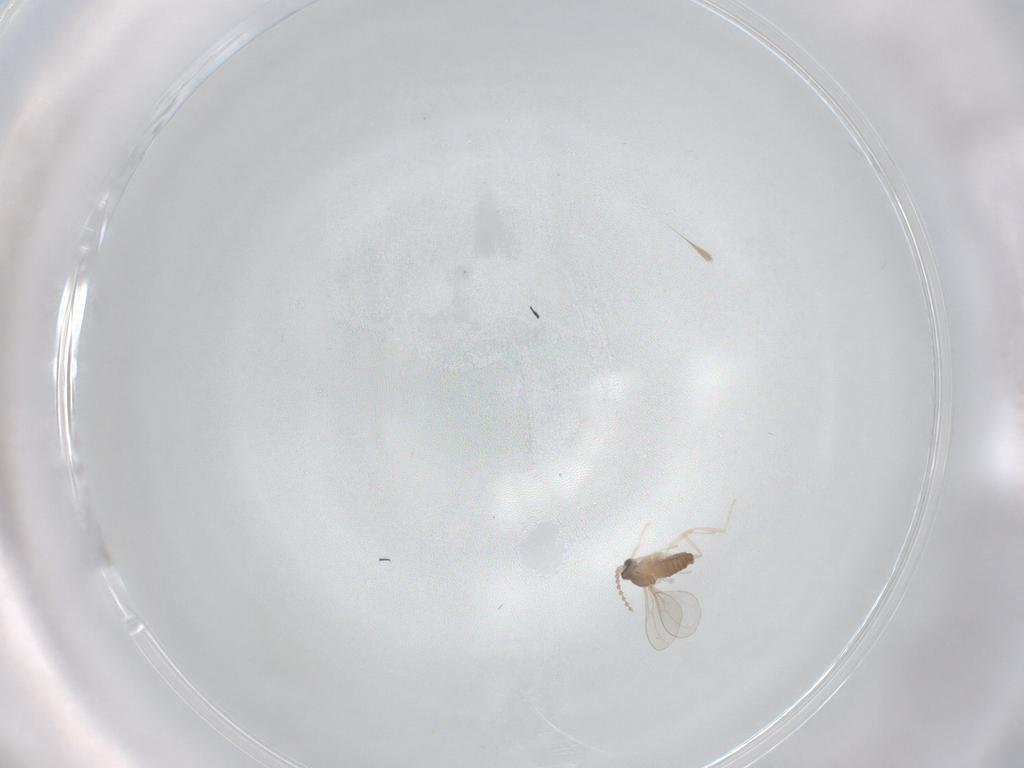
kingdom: Animalia
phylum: Arthropoda
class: Insecta
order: Diptera
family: Cecidomyiidae
